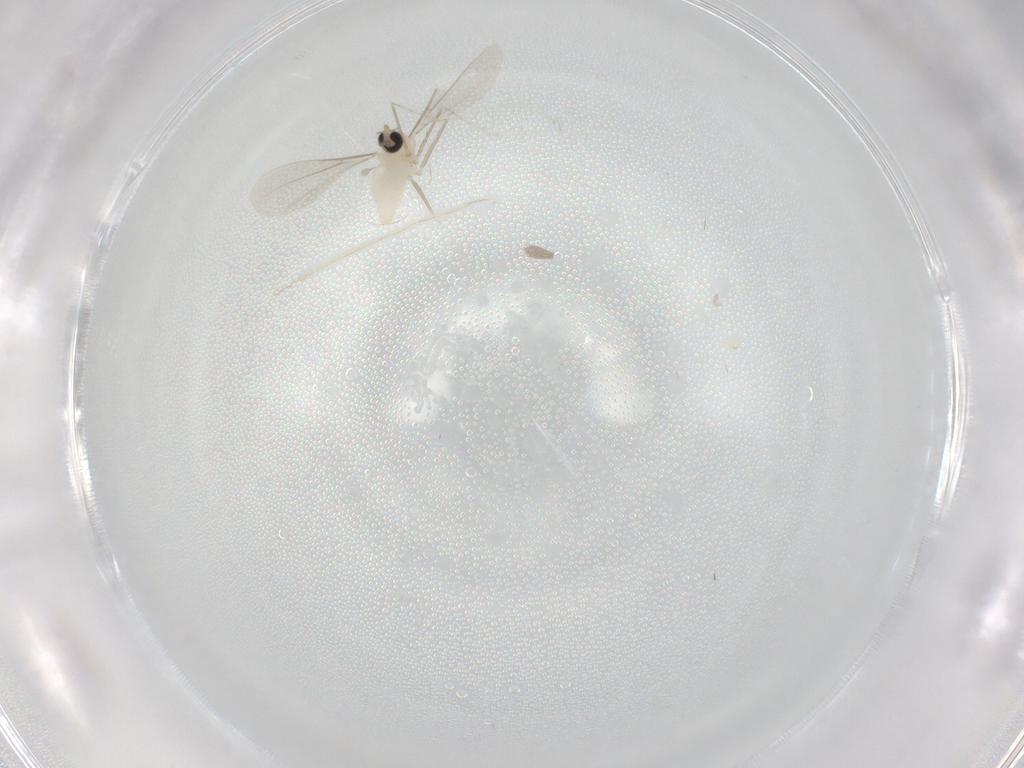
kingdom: Animalia
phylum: Arthropoda
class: Insecta
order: Diptera
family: Cecidomyiidae
